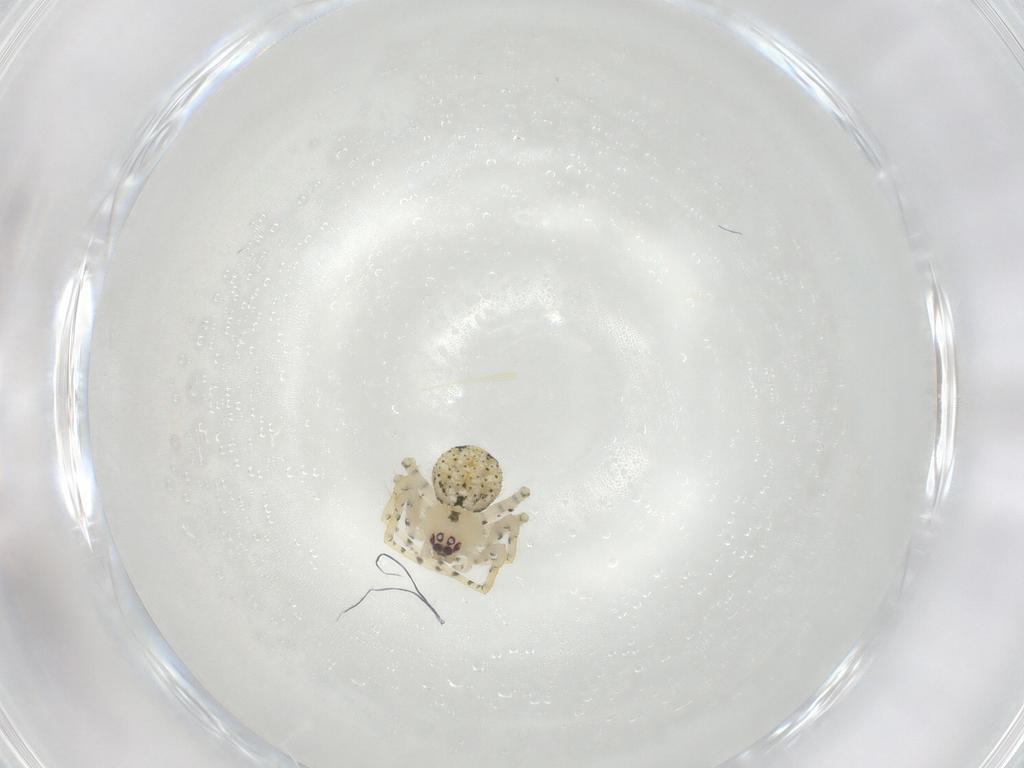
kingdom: Animalia
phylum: Arthropoda
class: Arachnida
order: Araneae
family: Theridiidae
